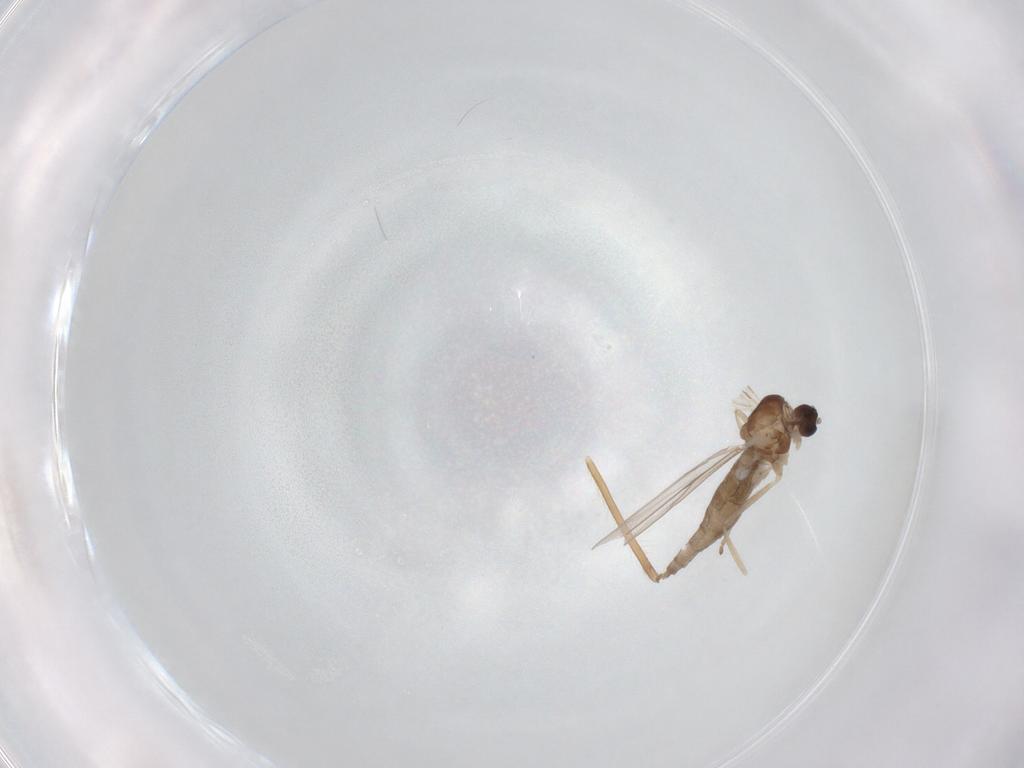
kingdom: Animalia
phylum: Arthropoda
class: Insecta
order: Diptera
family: Cecidomyiidae
